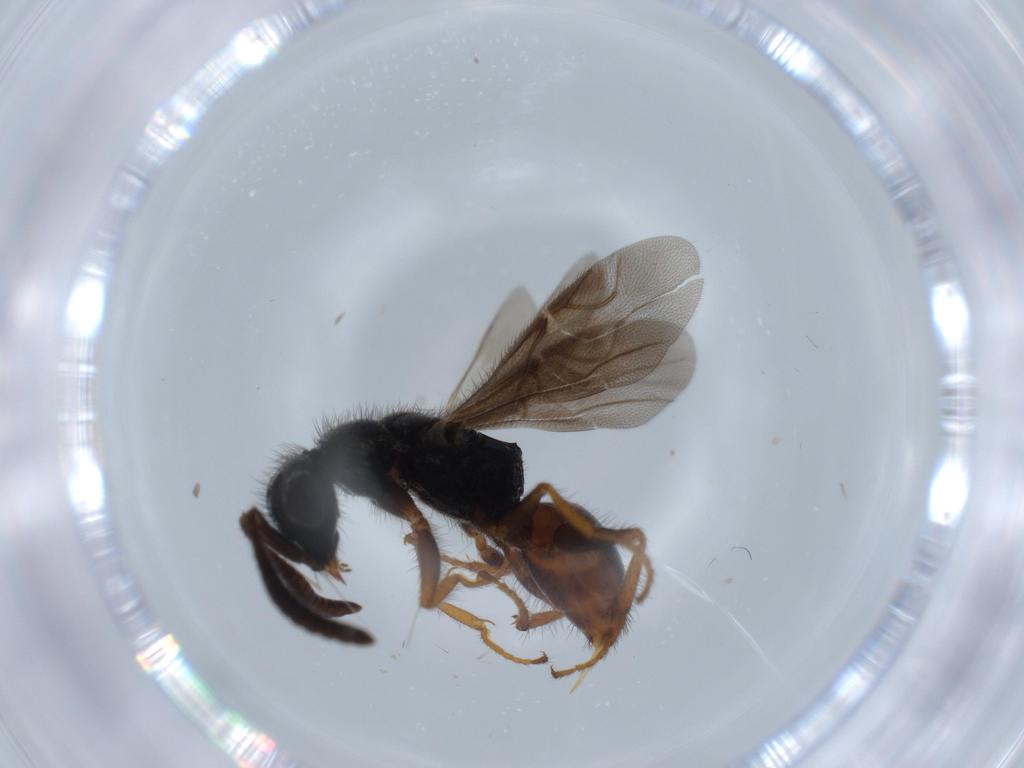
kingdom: Animalia
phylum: Arthropoda
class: Insecta
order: Hymenoptera
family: Chrysididae
